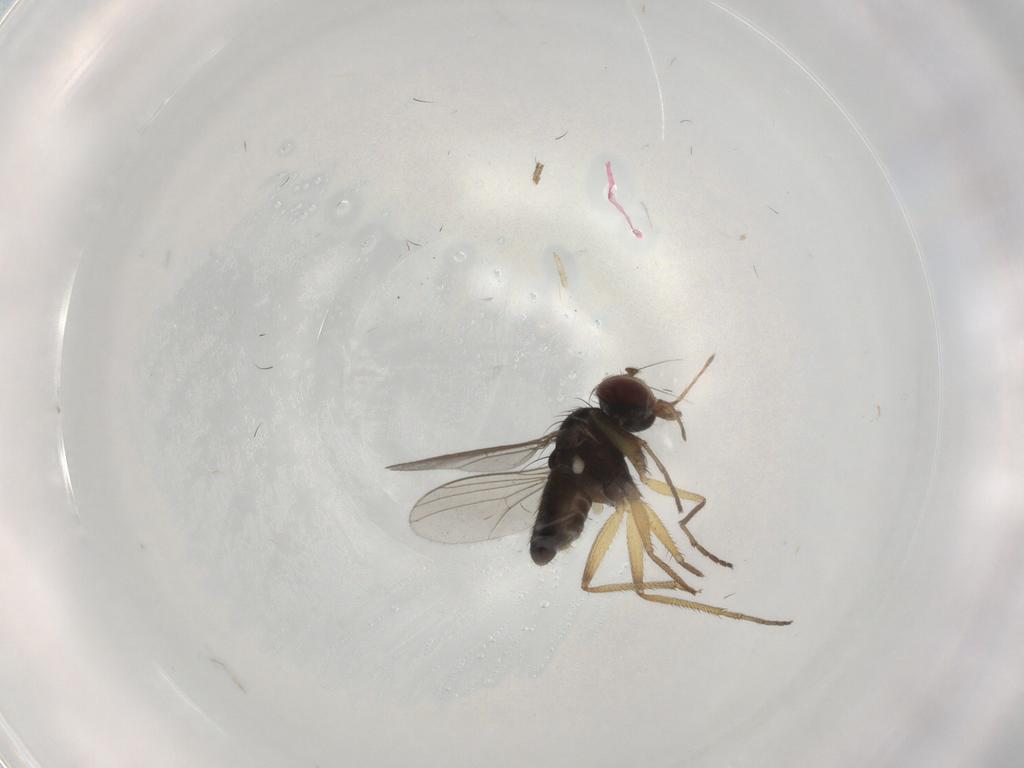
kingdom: Animalia
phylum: Arthropoda
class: Insecta
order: Diptera
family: Dolichopodidae
